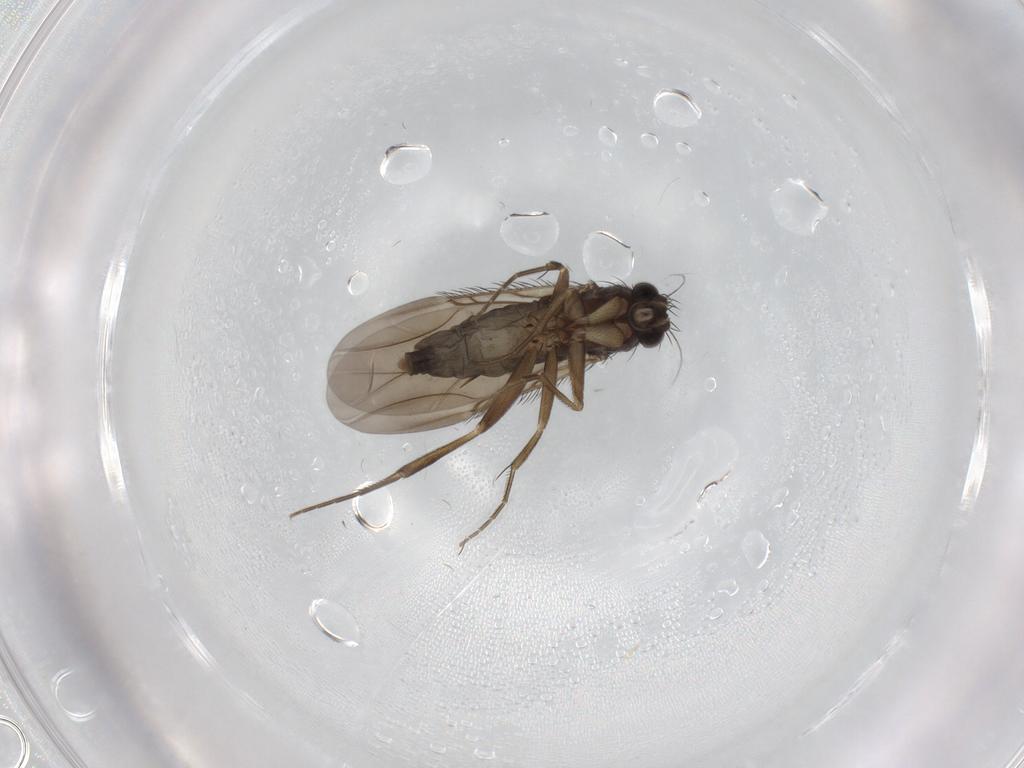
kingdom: Animalia
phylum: Arthropoda
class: Insecta
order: Diptera
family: Phoridae
